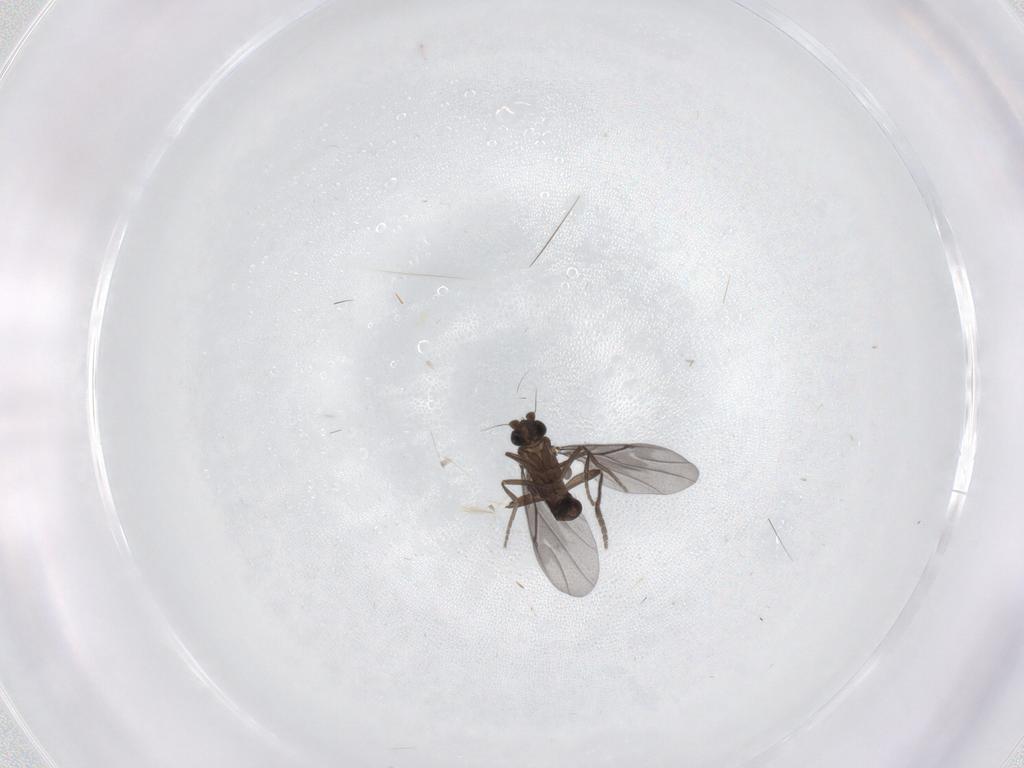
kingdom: Animalia
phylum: Arthropoda
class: Insecta
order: Diptera
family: Phoridae
